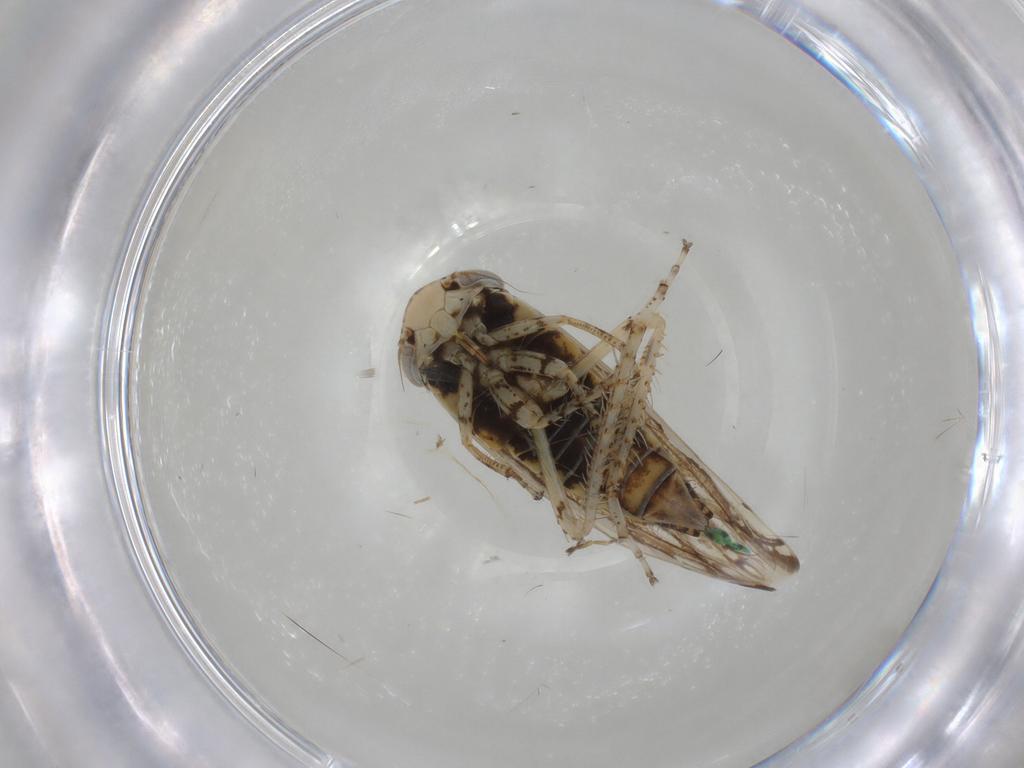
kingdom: Animalia
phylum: Arthropoda
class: Insecta
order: Hemiptera
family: Cicadellidae
